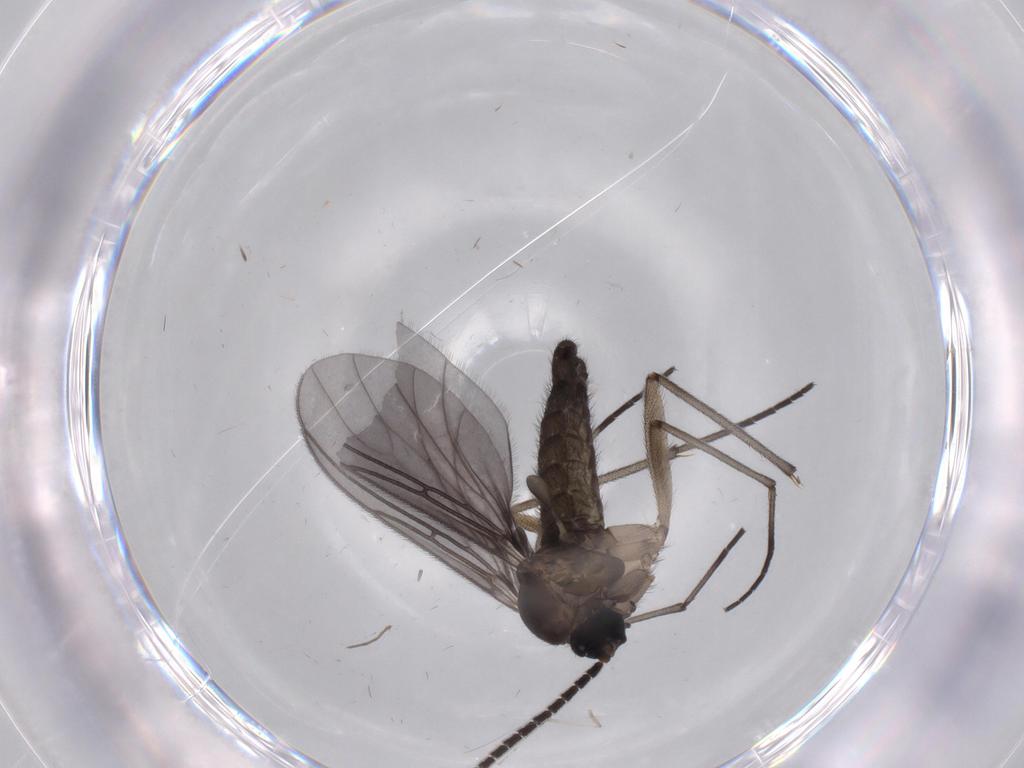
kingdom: Animalia
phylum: Arthropoda
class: Insecta
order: Diptera
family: Sciaridae
